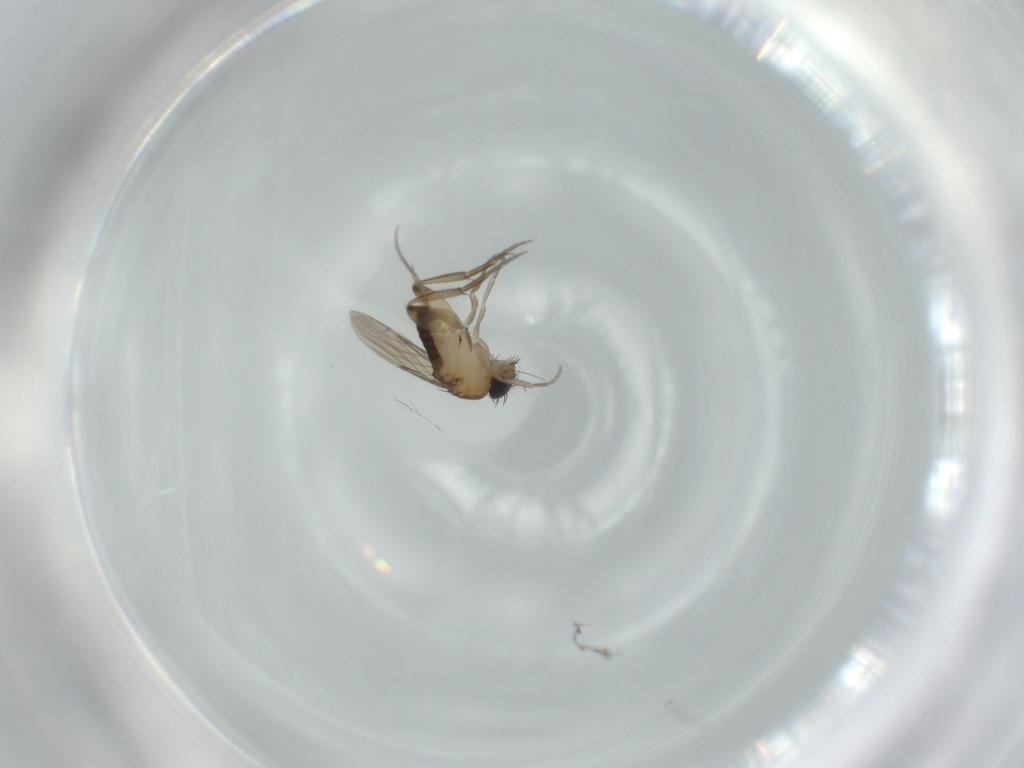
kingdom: Animalia
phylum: Arthropoda
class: Insecta
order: Diptera
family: Phoridae
